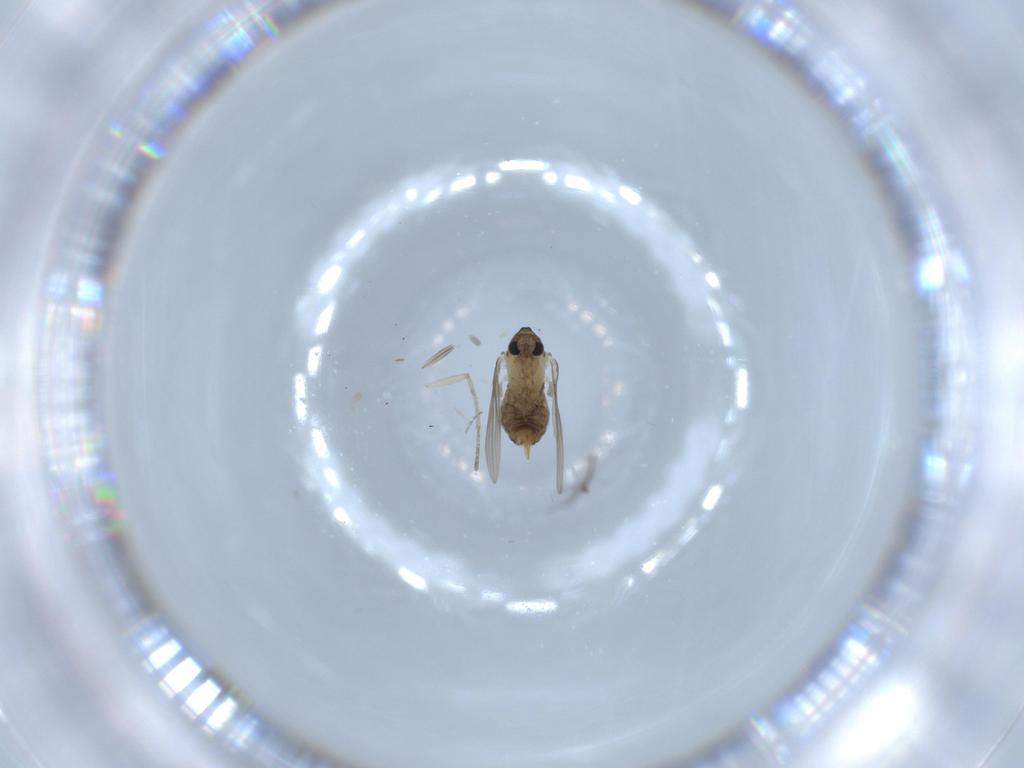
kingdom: Animalia
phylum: Arthropoda
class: Insecta
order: Diptera
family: Psychodidae
